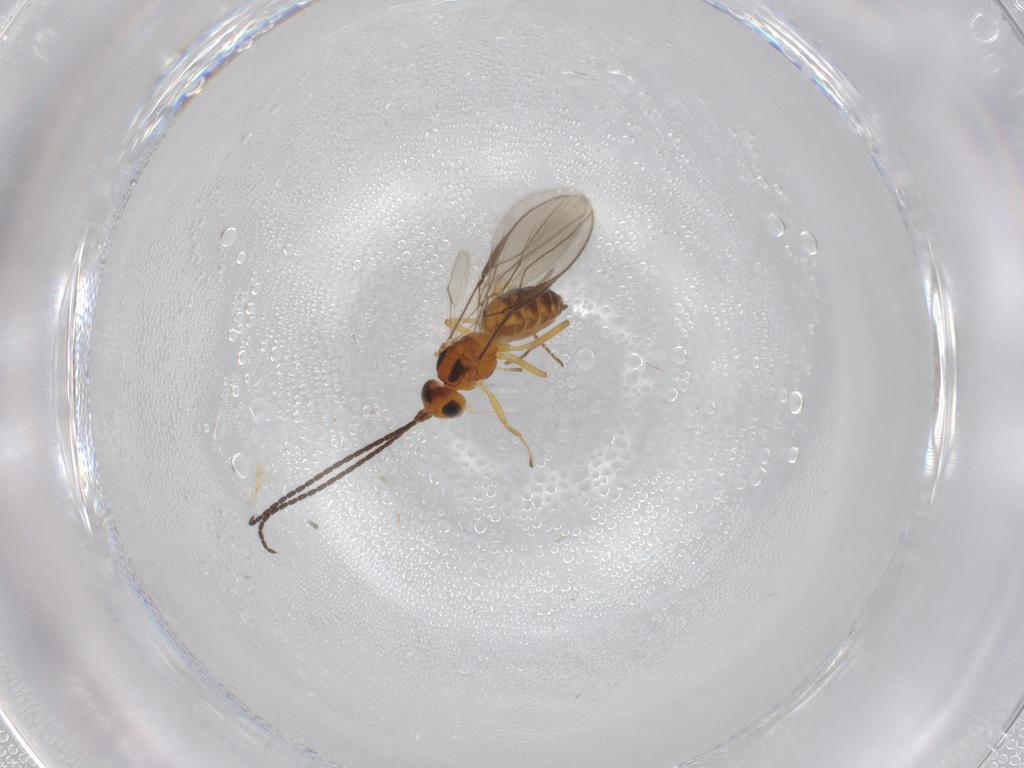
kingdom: Animalia
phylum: Arthropoda
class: Insecta
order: Hymenoptera
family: Braconidae
